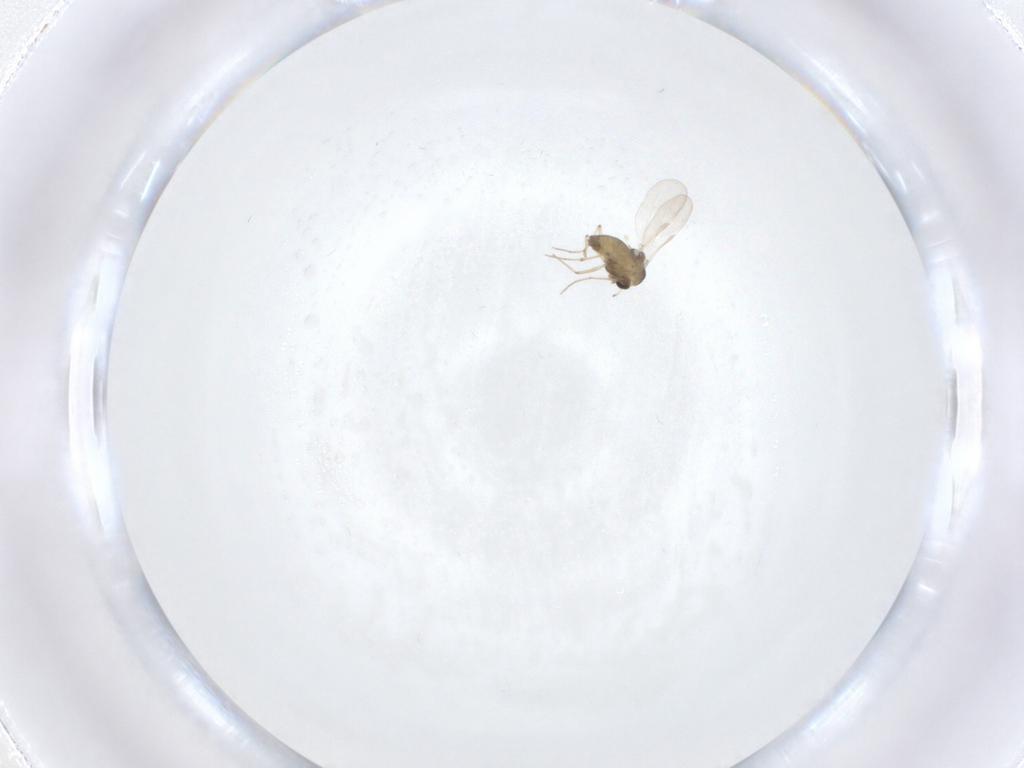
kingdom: Animalia
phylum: Arthropoda
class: Insecta
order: Diptera
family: Chironomidae
